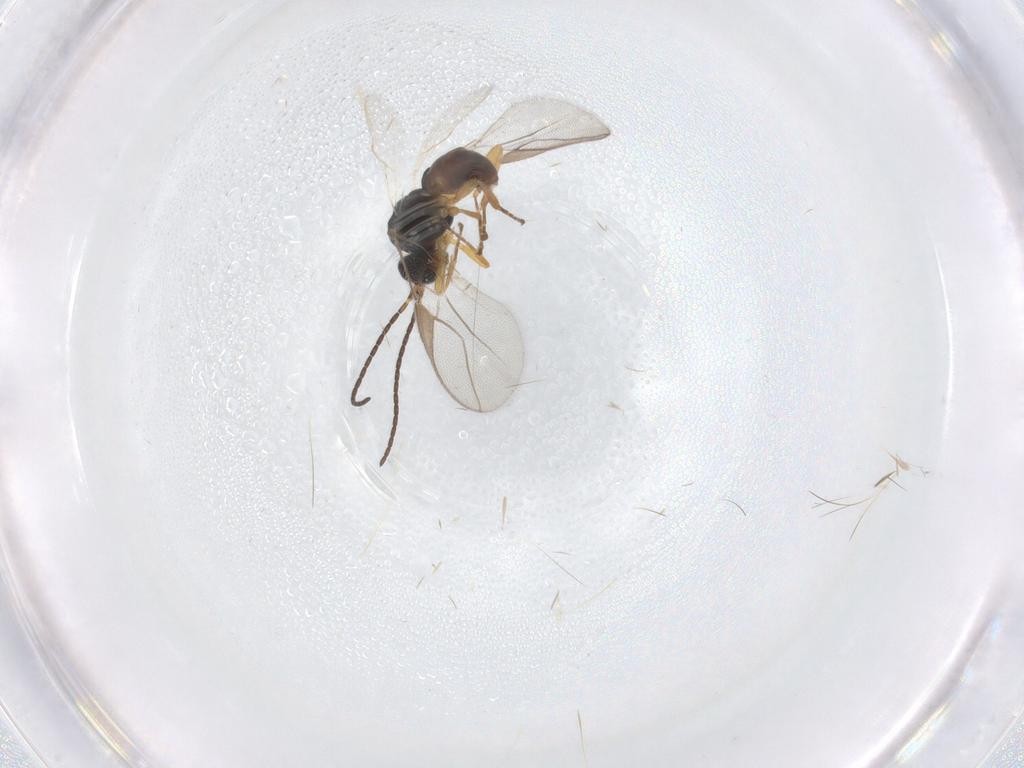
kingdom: Animalia
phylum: Arthropoda
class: Insecta
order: Hymenoptera
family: Braconidae
